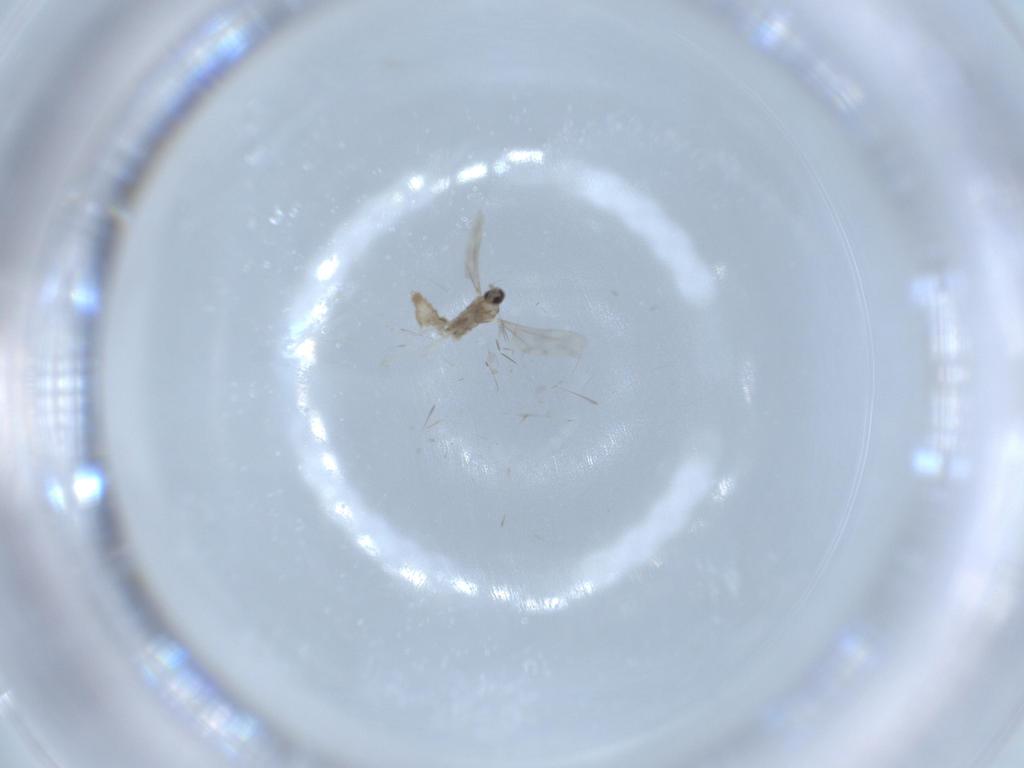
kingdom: Animalia
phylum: Arthropoda
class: Insecta
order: Diptera
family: Cecidomyiidae
